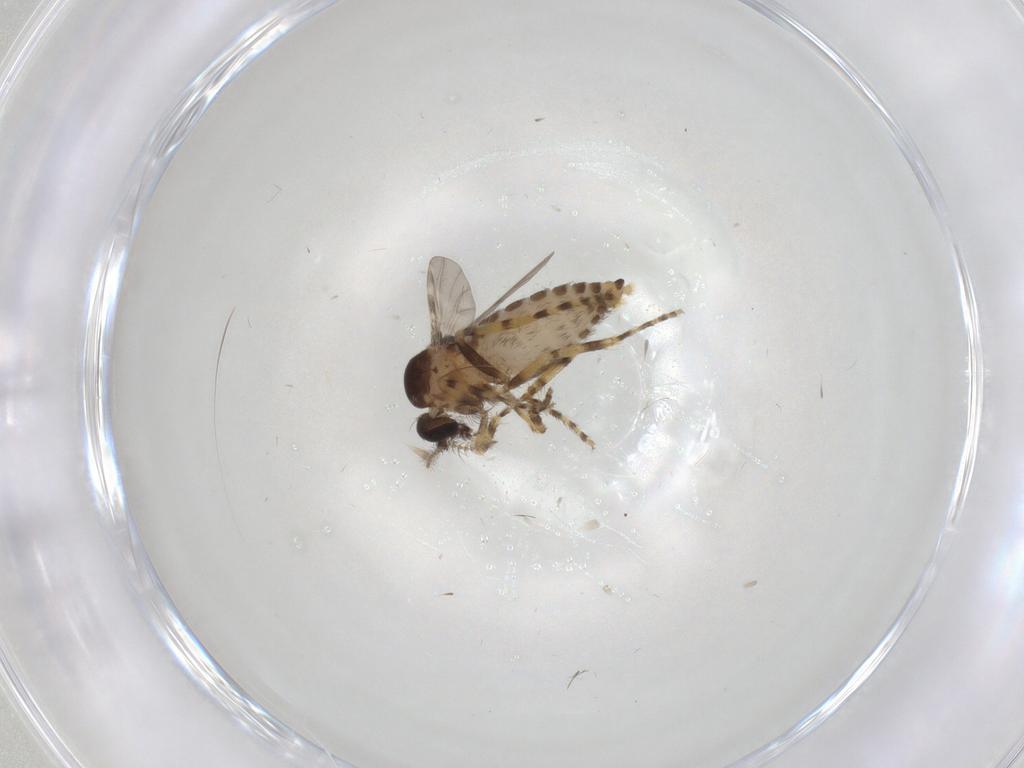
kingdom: Animalia
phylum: Arthropoda
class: Insecta
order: Diptera
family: Ceratopogonidae
